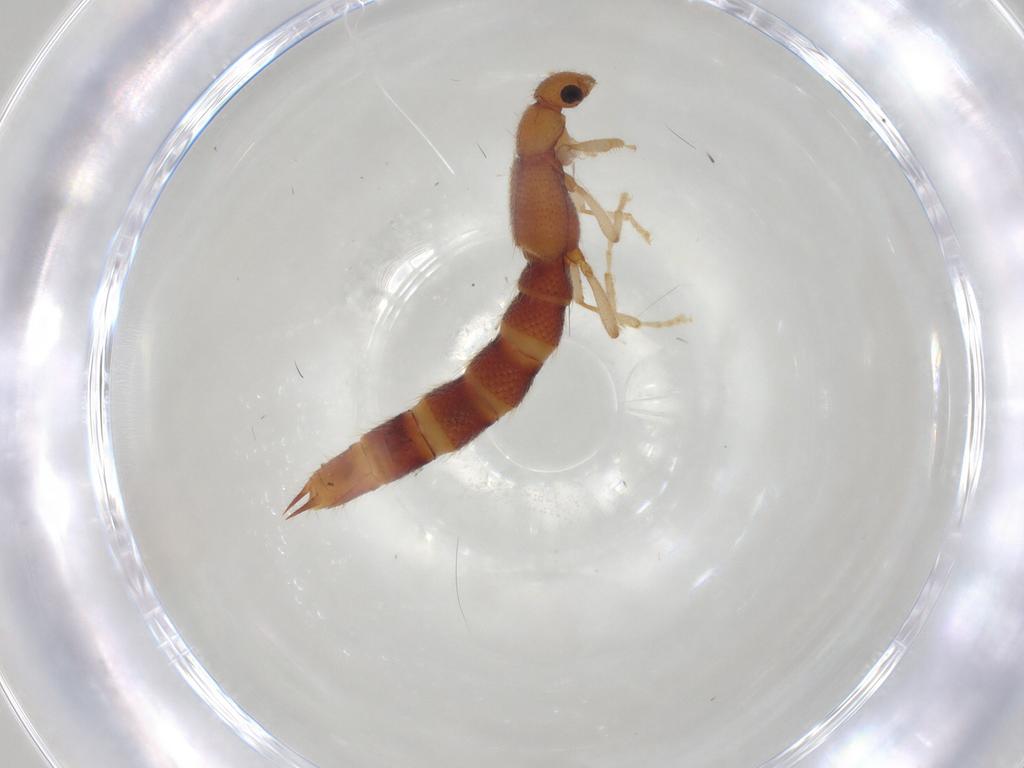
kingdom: Animalia
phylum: Arthropoda
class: Insecta
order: Coleoptera
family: Staphylinidae
